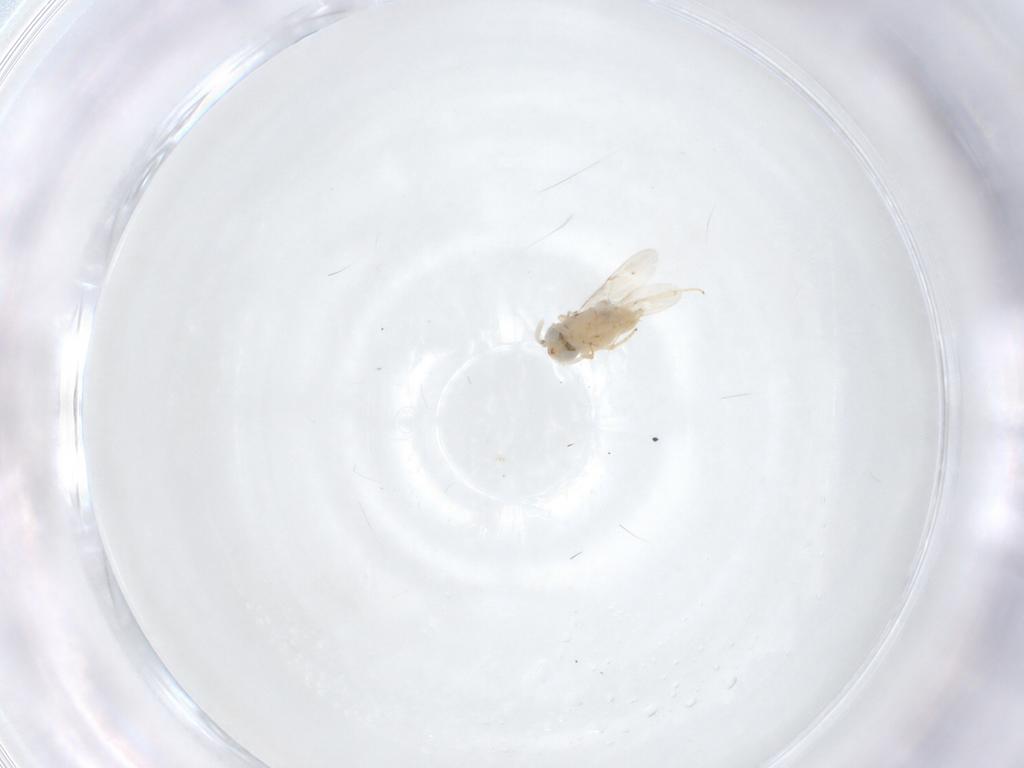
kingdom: Animalia
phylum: Arthropoda
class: Insecta
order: Hymenoptera
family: Encyrtidae
